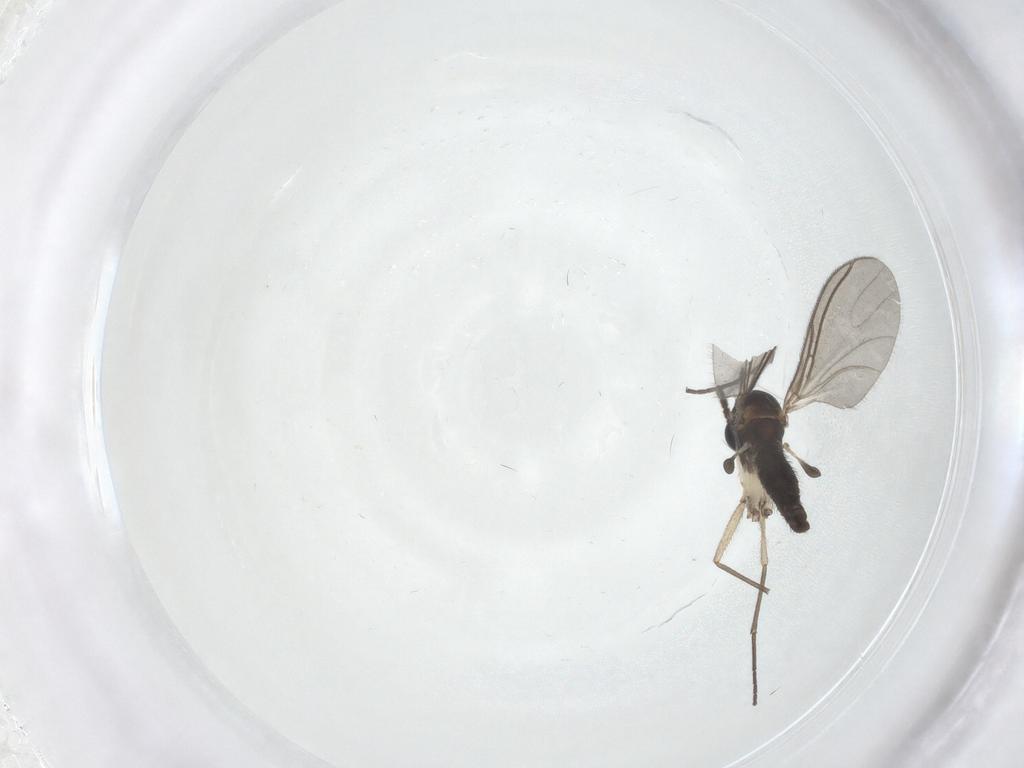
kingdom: Animalia
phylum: Arthropoda
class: Insecta
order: Diptera
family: Sciaridae
